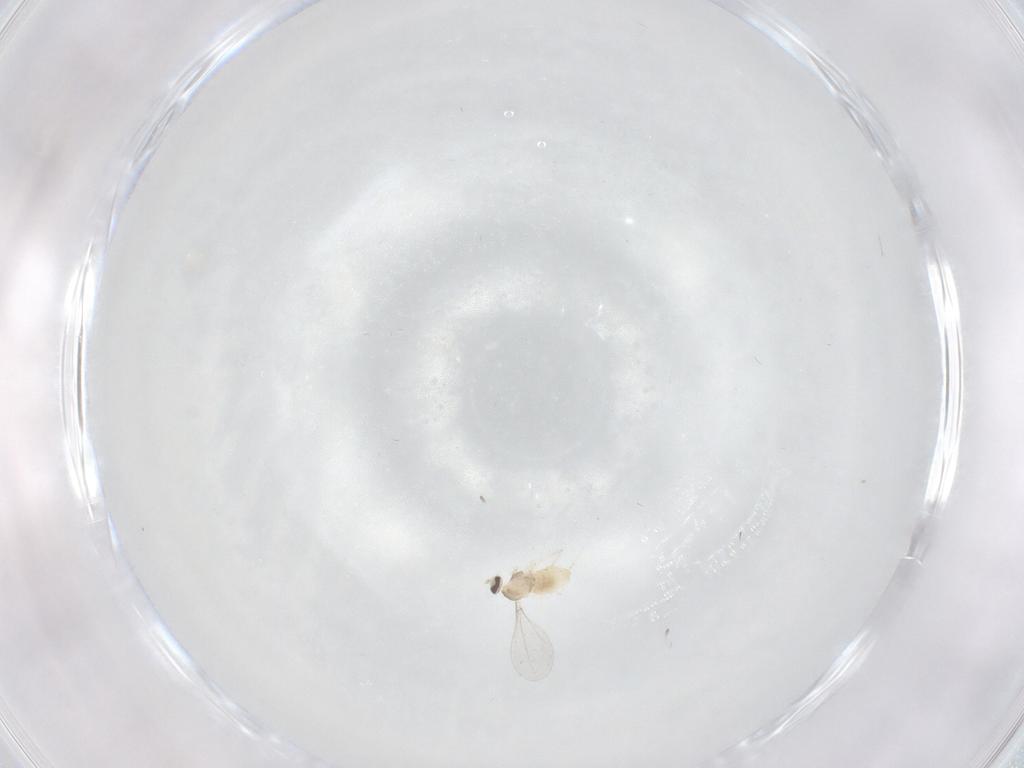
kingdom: Animalia
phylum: Arthropoda
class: Insecta
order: Diptera
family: Cecidomyiidae
